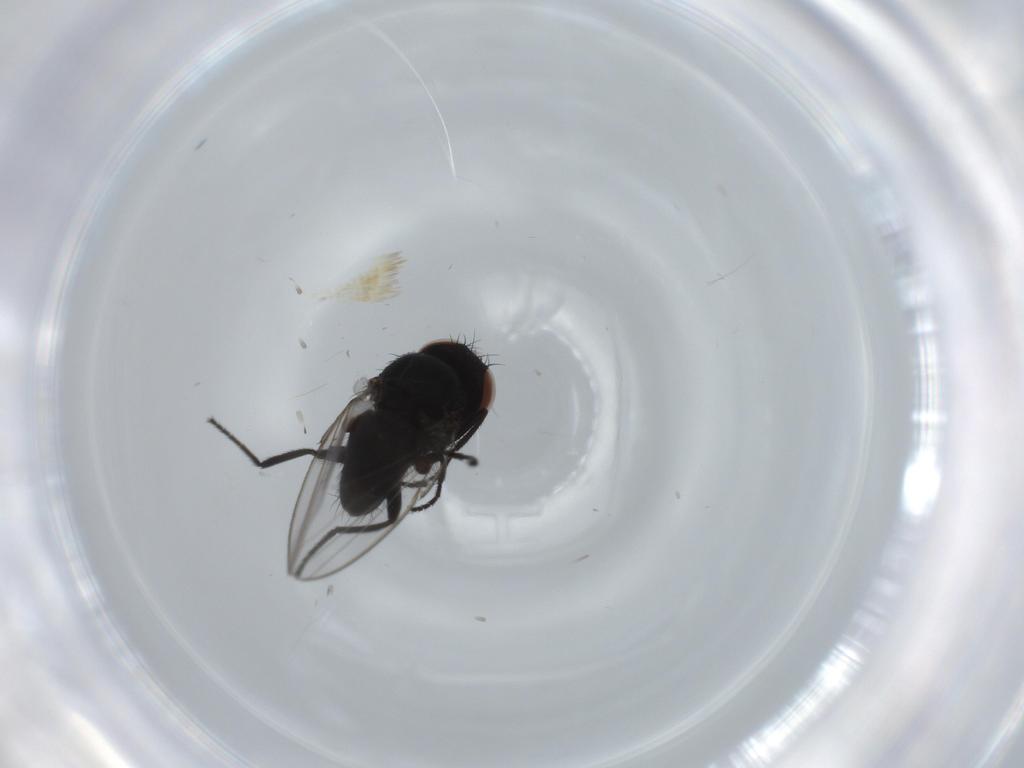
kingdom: Animalia
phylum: Arthropoda
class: Insecta
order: Diptera
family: Milichiidae
